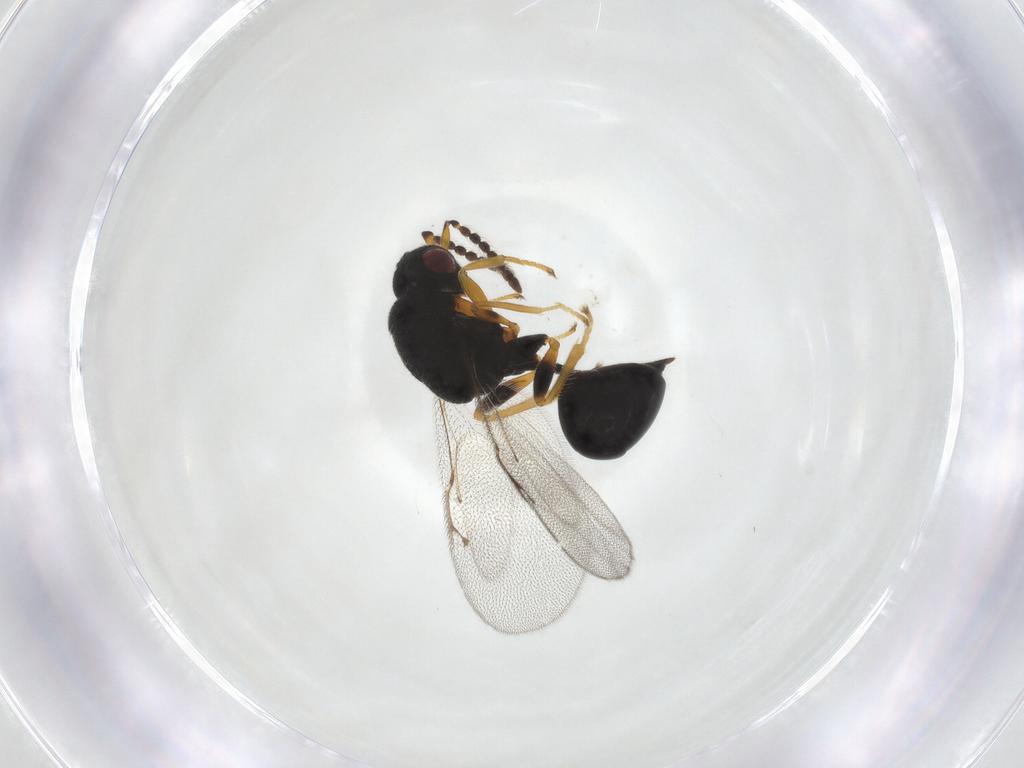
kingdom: Animalia
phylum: Arthropoda
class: Insecta
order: Hymenoptera
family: Eurytomidae
